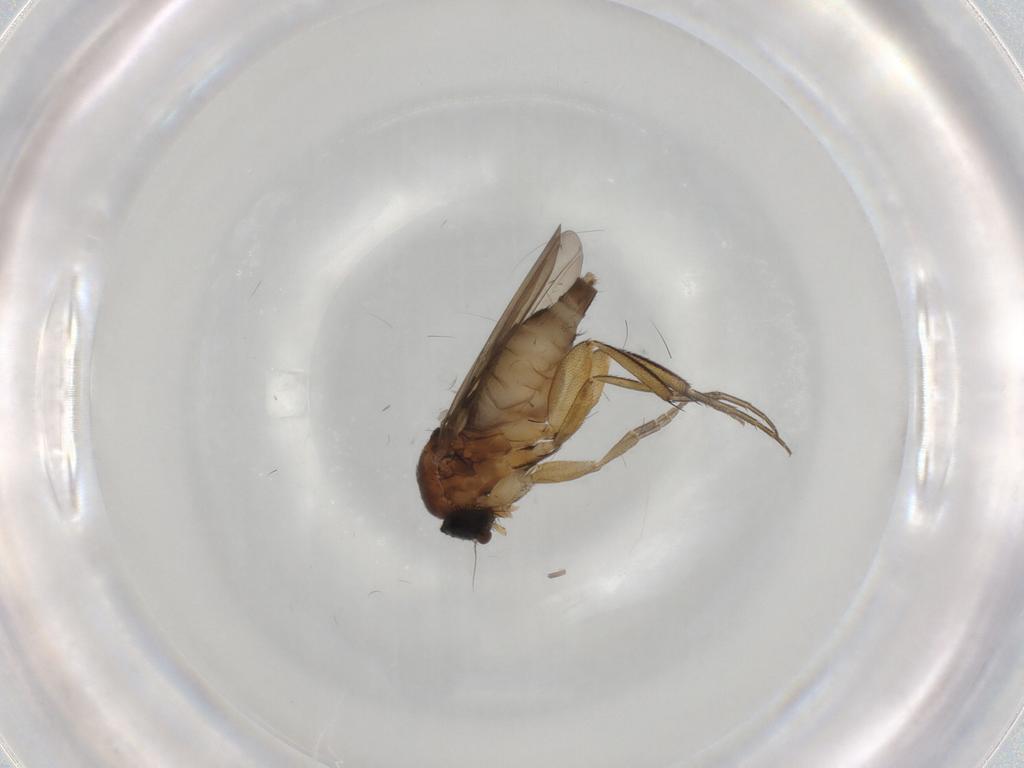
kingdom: Animalia
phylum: Arthropoda
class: Insecta
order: Diptera
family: Phoridae
